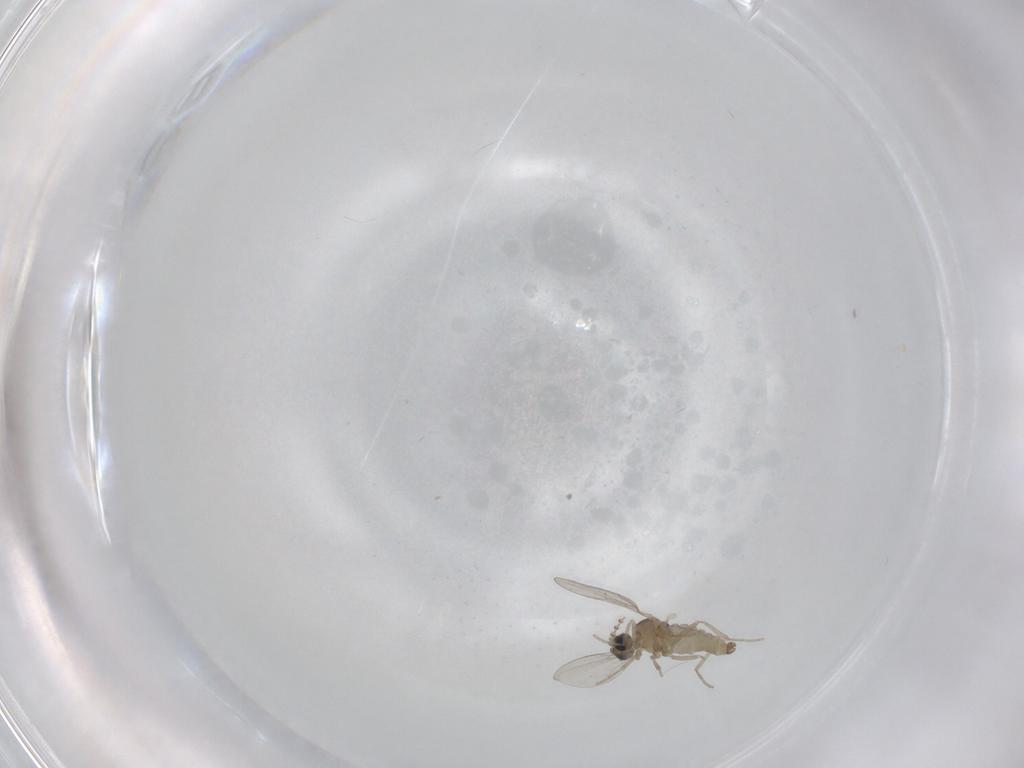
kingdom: Animalia
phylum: Arthropoda
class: Insecta
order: Diptera
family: Cecidomyiidae
